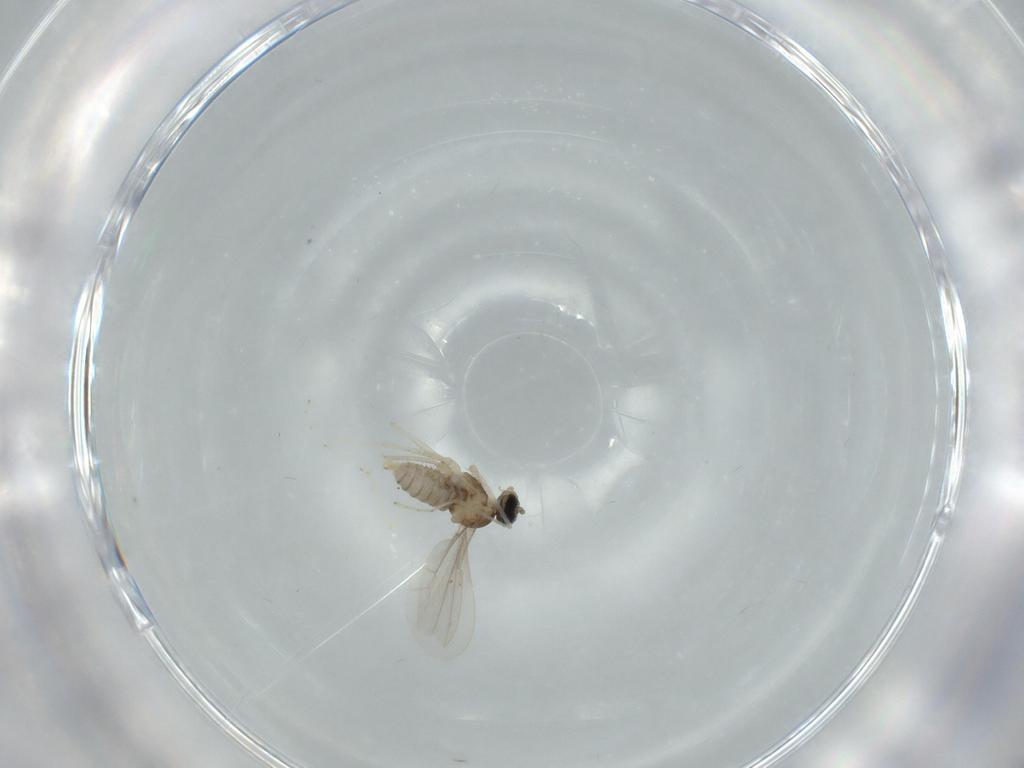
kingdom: Animalia
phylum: Arthropoda
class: Insecta
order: Diptera
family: Cecidomyiidae
